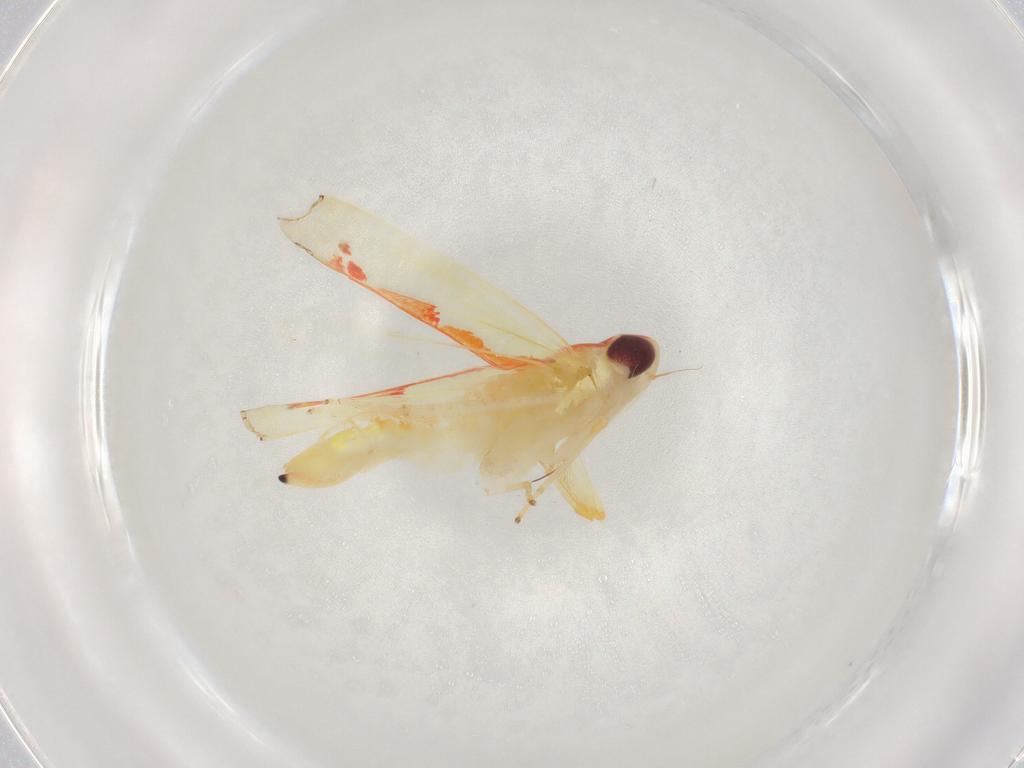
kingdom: Animalia
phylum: Arthropoda
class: Insecta
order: Hemiptera
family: Cicadellidae
